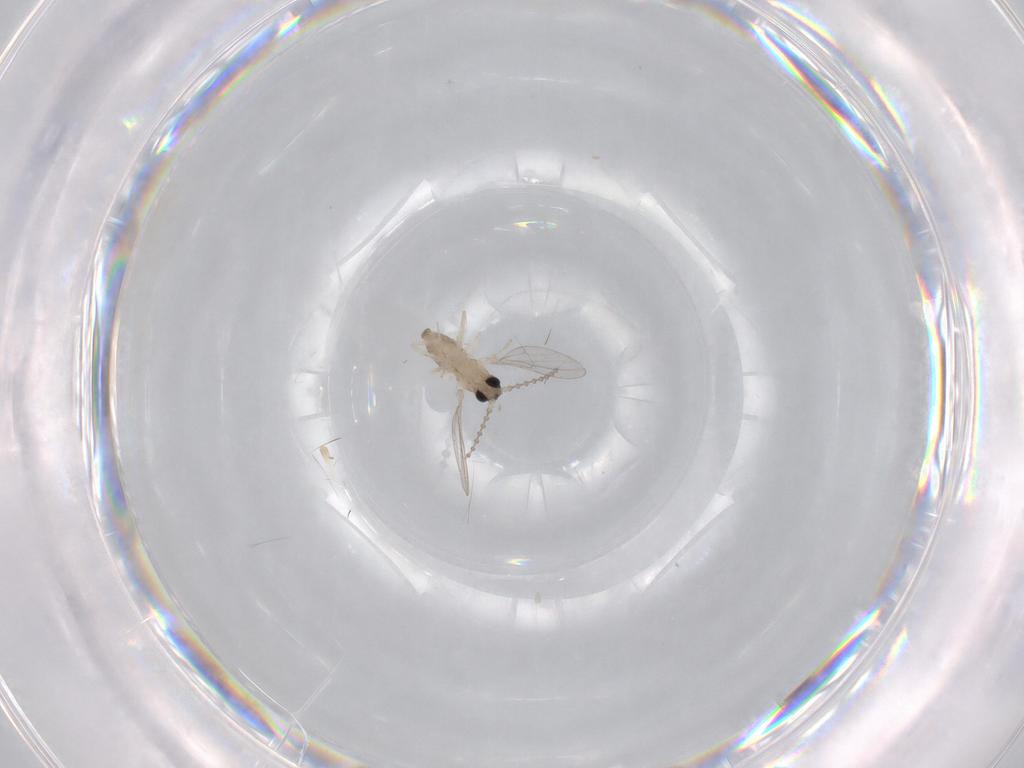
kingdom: Animalia
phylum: Arthropoda
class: Insecta
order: Diptera
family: Cecidomyiidae
